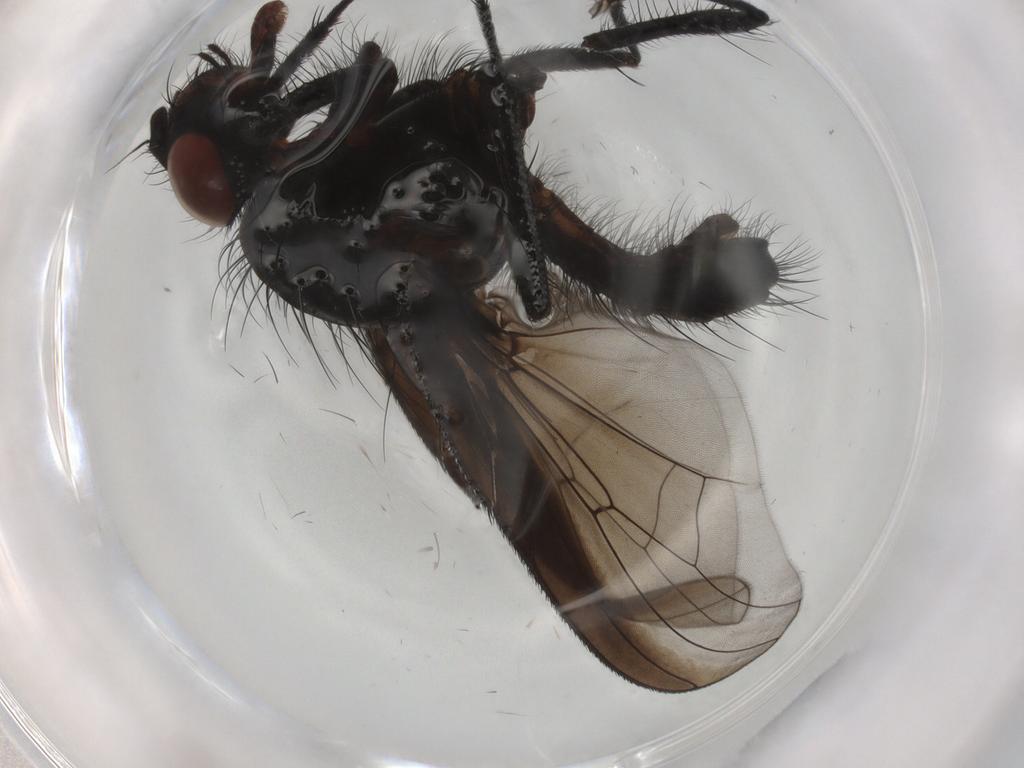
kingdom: Animalia
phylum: Arthropoda
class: Insecta
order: Diptera
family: Anthomyiidae
